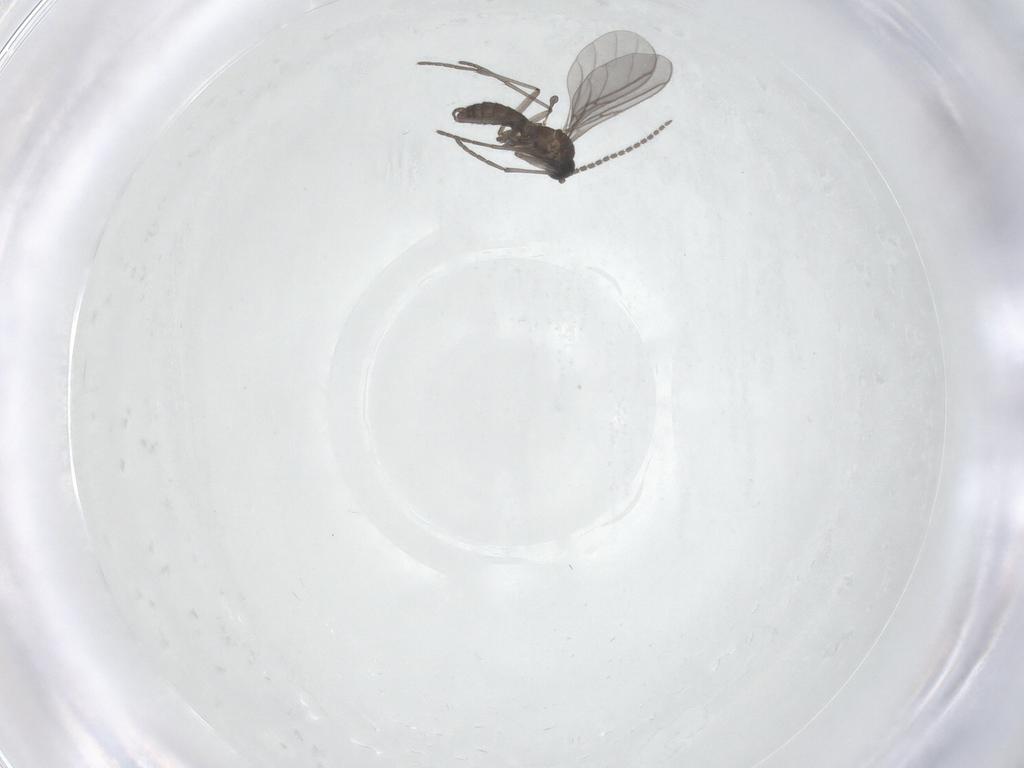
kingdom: Animalia
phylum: Arthropoda
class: Insecta
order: Diptera
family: Sciaridae
